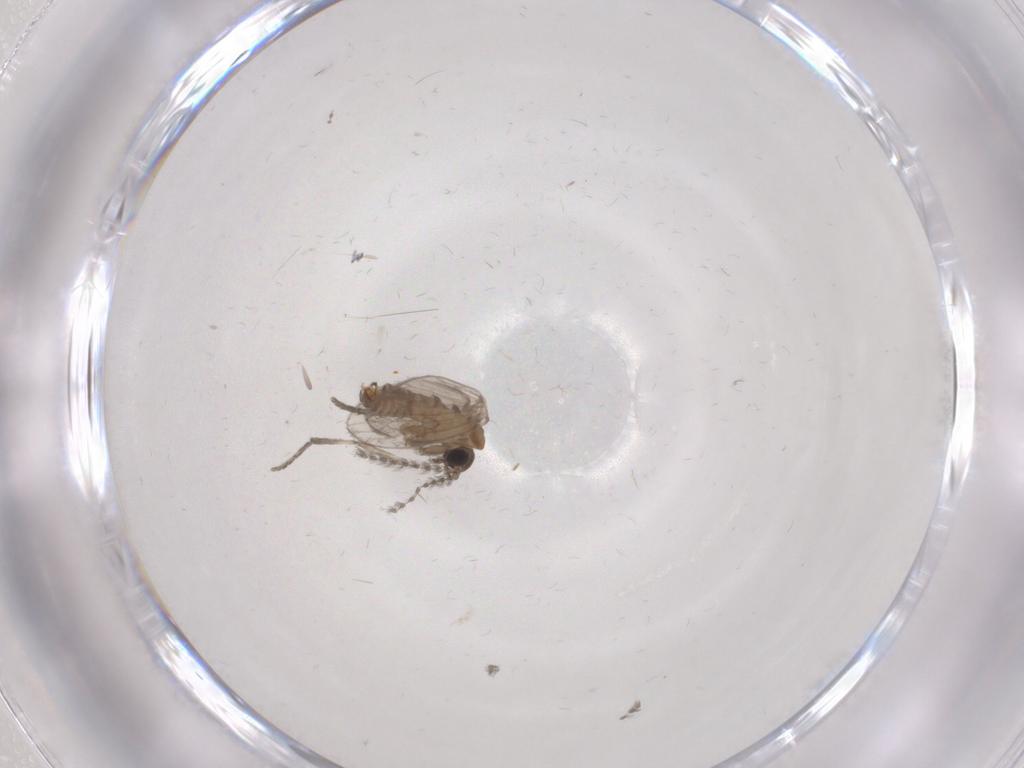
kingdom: Animalia
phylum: Arthropoda
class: Insecta
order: Diptera
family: Psychodidae
